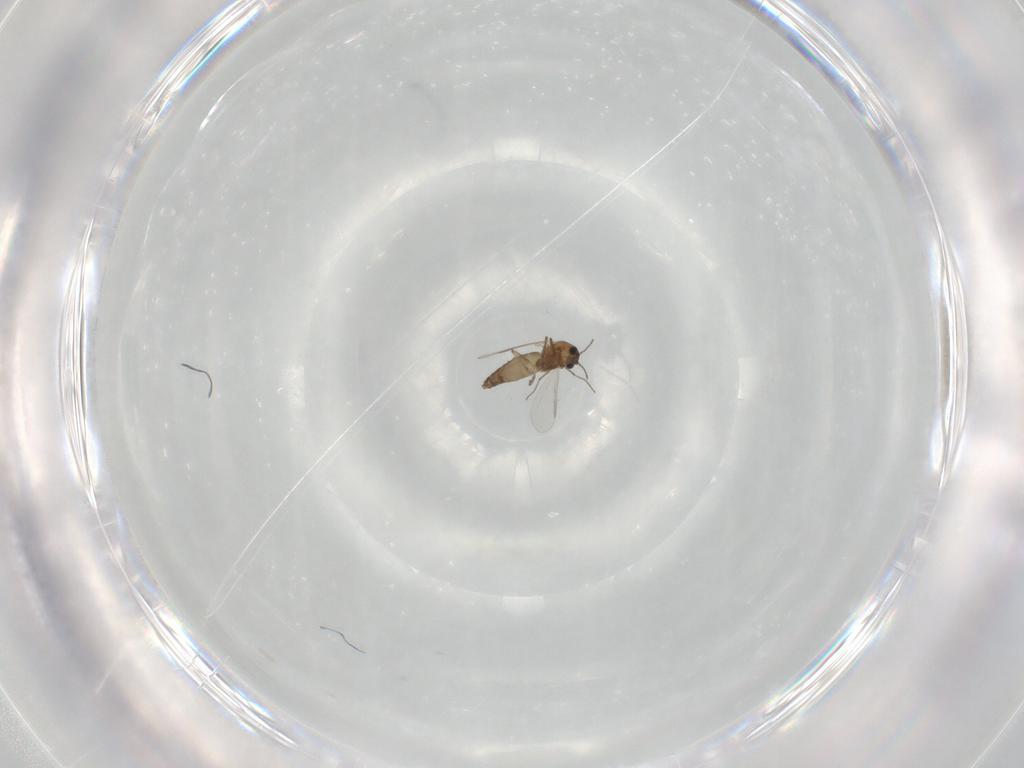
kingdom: Animalia
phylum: Arthropoda
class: Insecta
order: Diptera
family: Chironomidae
